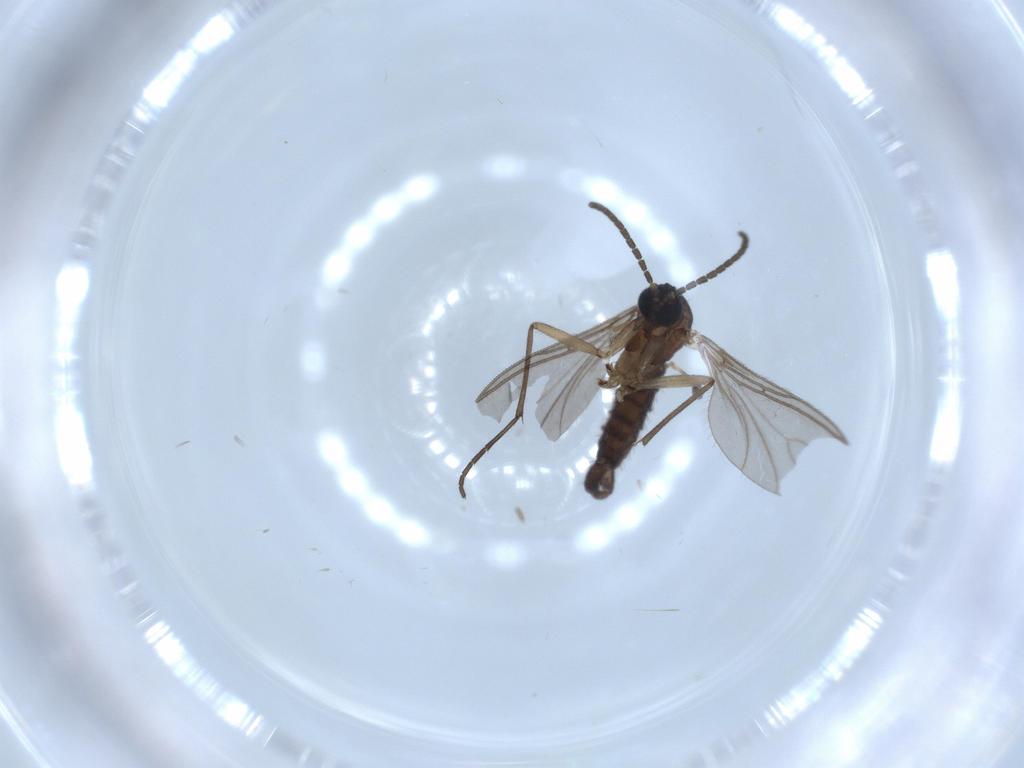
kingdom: Animalia
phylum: Arthropoda
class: Insecta
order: Diptera
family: Sciaridae
